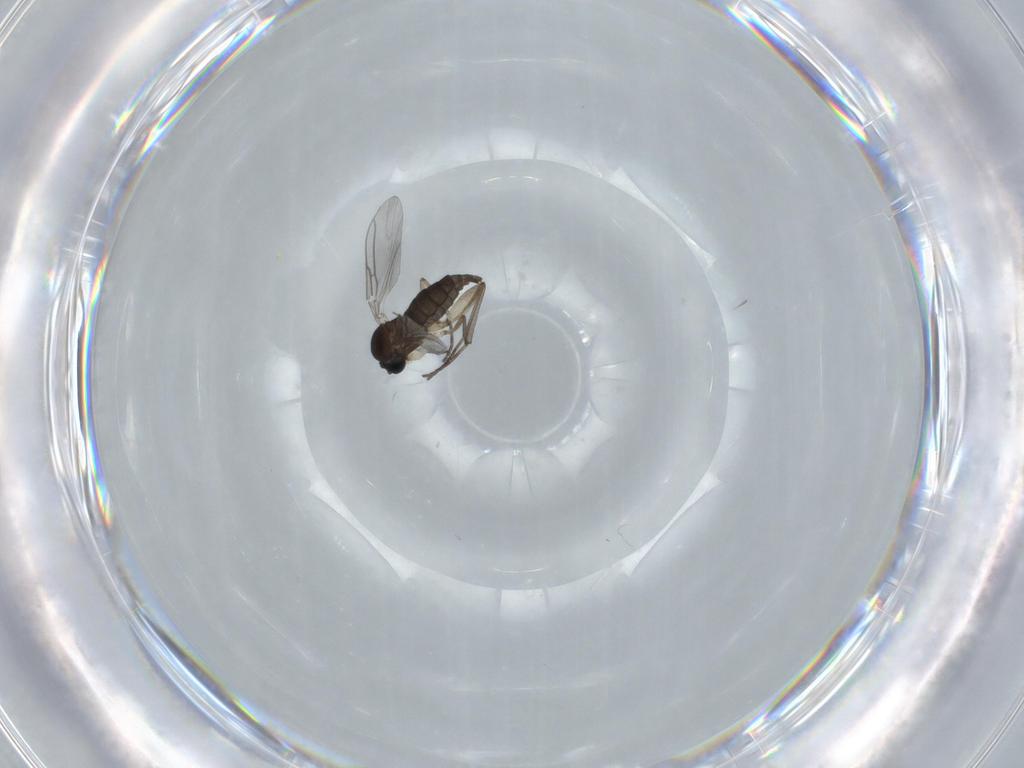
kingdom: Animalia
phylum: Arthropoda
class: Insecta
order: Diptera
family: Sciaridae
